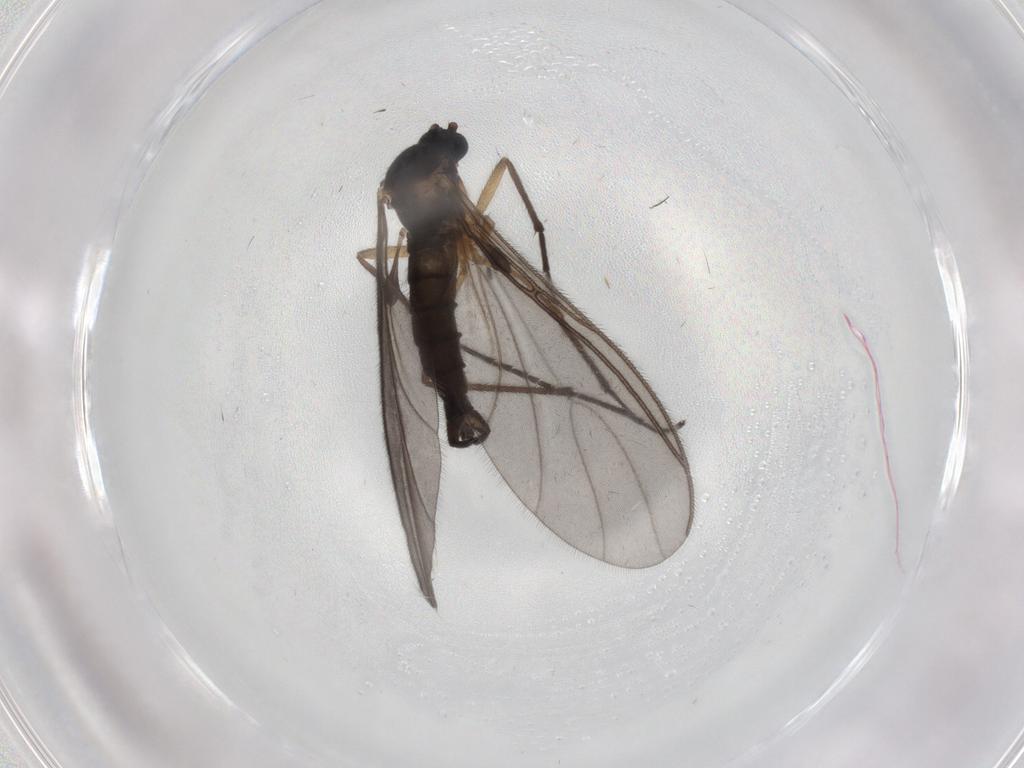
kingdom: Animalia
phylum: Arthropoda
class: Insecta
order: Diptera
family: Sciaridae
